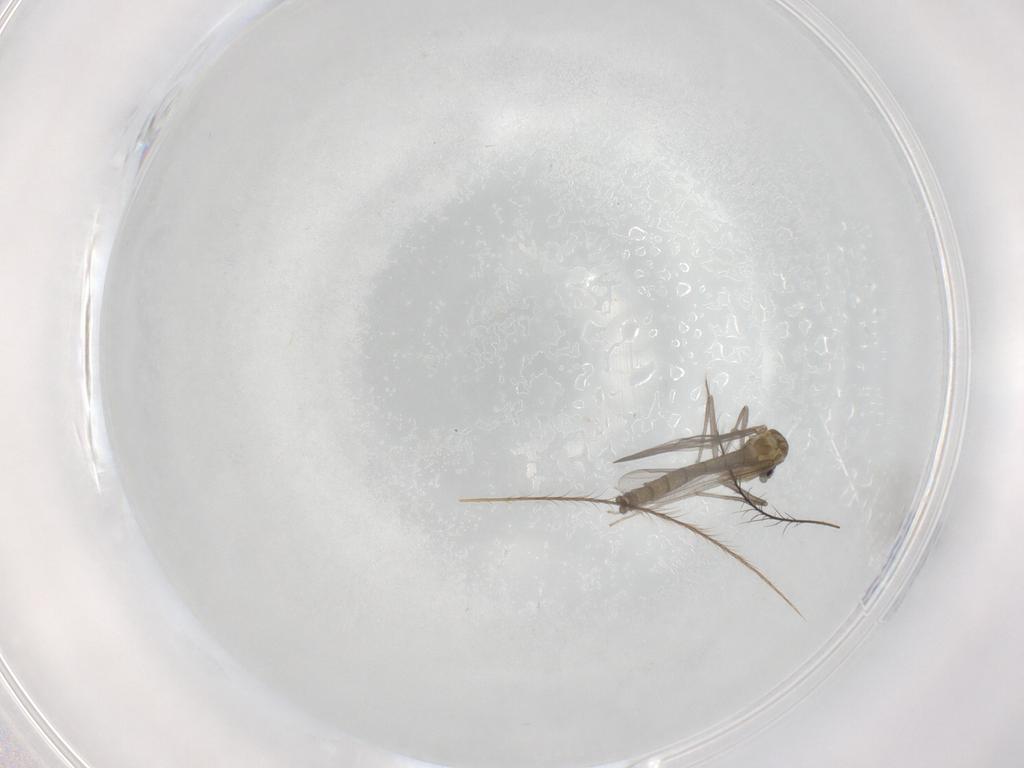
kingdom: Animalia
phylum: Arthropoda
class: Insecta
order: Diptera
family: Chironomidae
